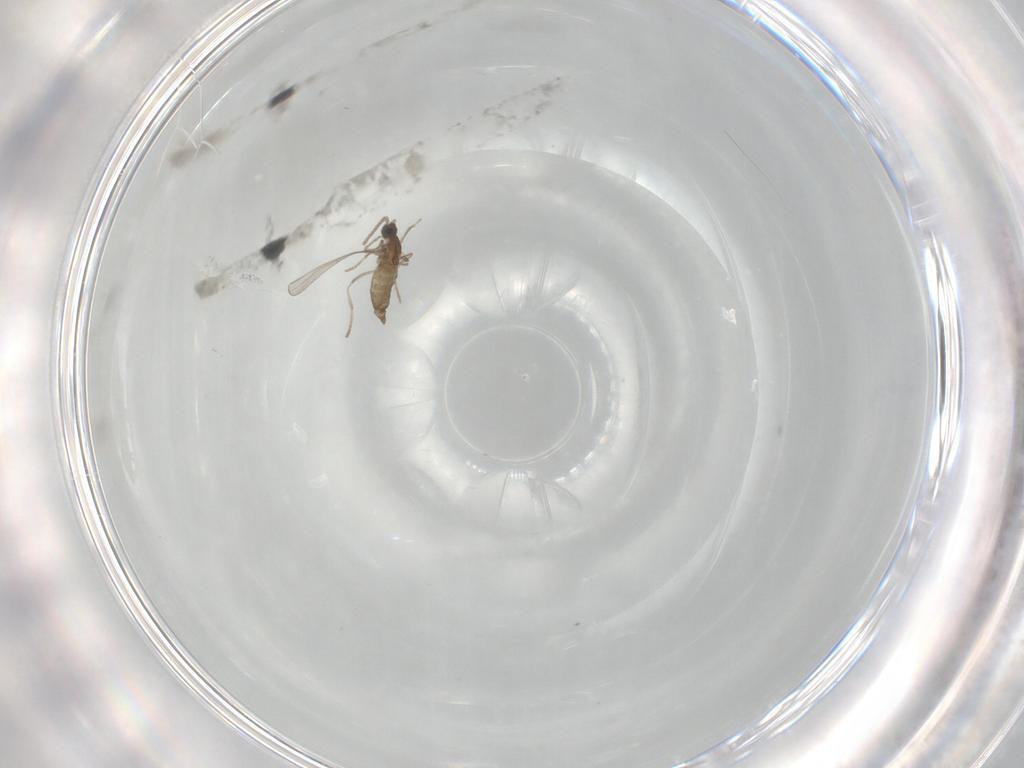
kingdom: Animalia
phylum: Arthropoda
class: Insecta
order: Diptera
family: Cecidomyiidae
